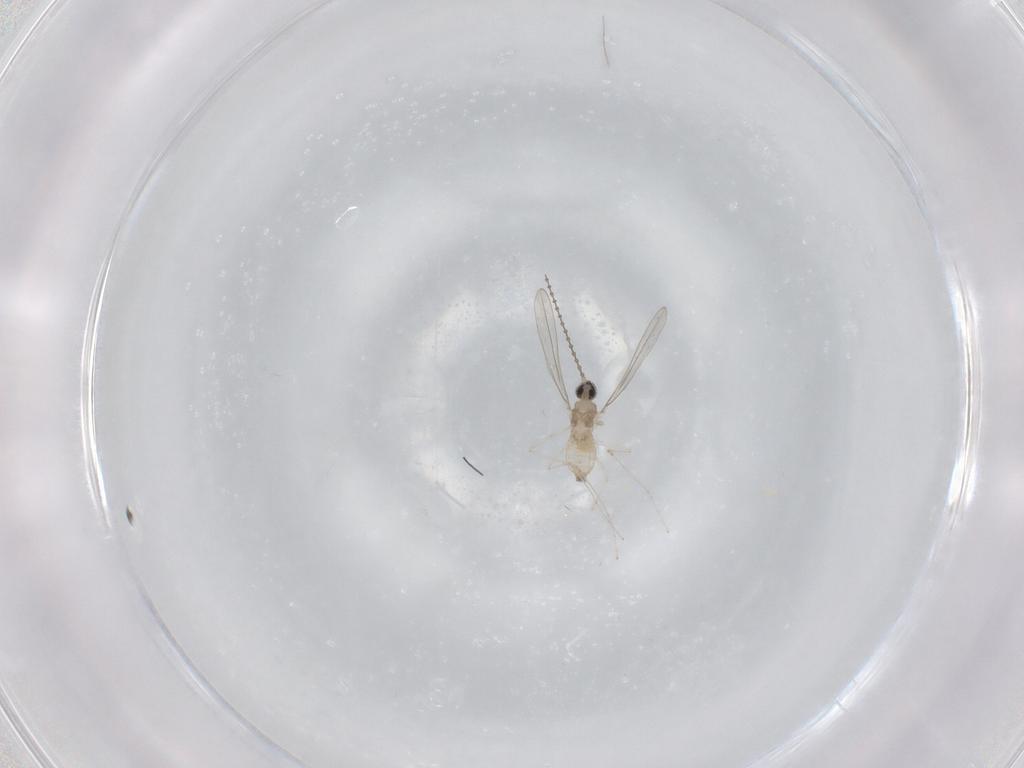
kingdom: Animalia
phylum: Arthropoda
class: Insecta
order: Diptera
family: Cecidomyiidae
